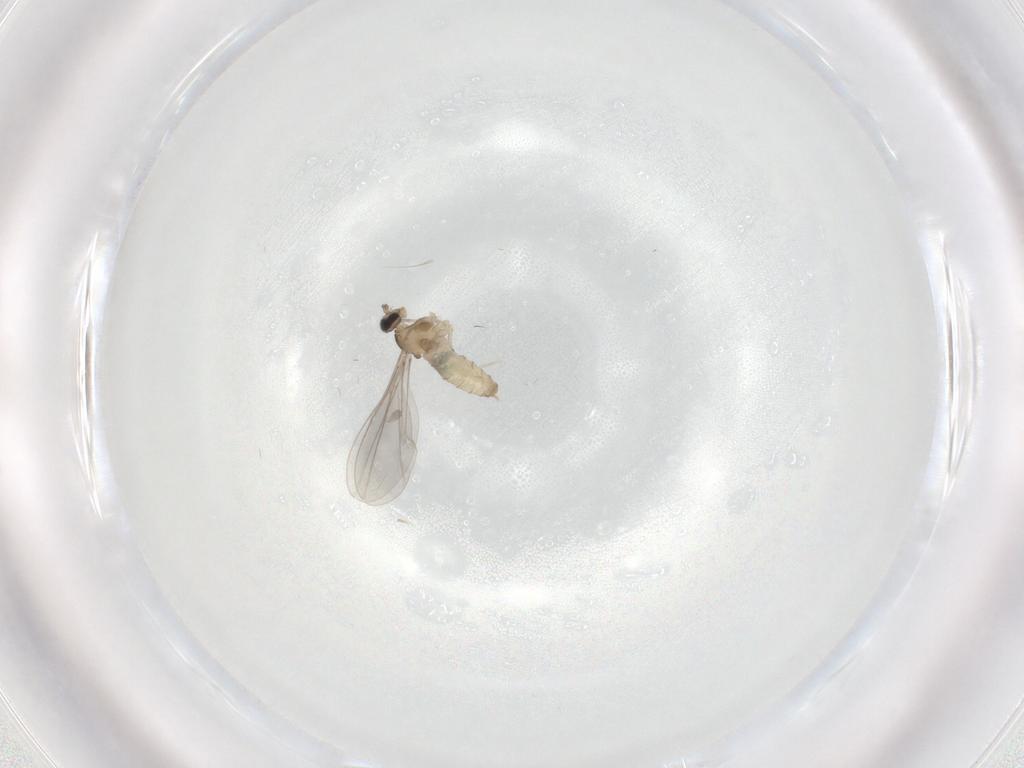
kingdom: Animalia
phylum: Arthropoda
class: Insecta
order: Diptera
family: Cecidomyiidae
